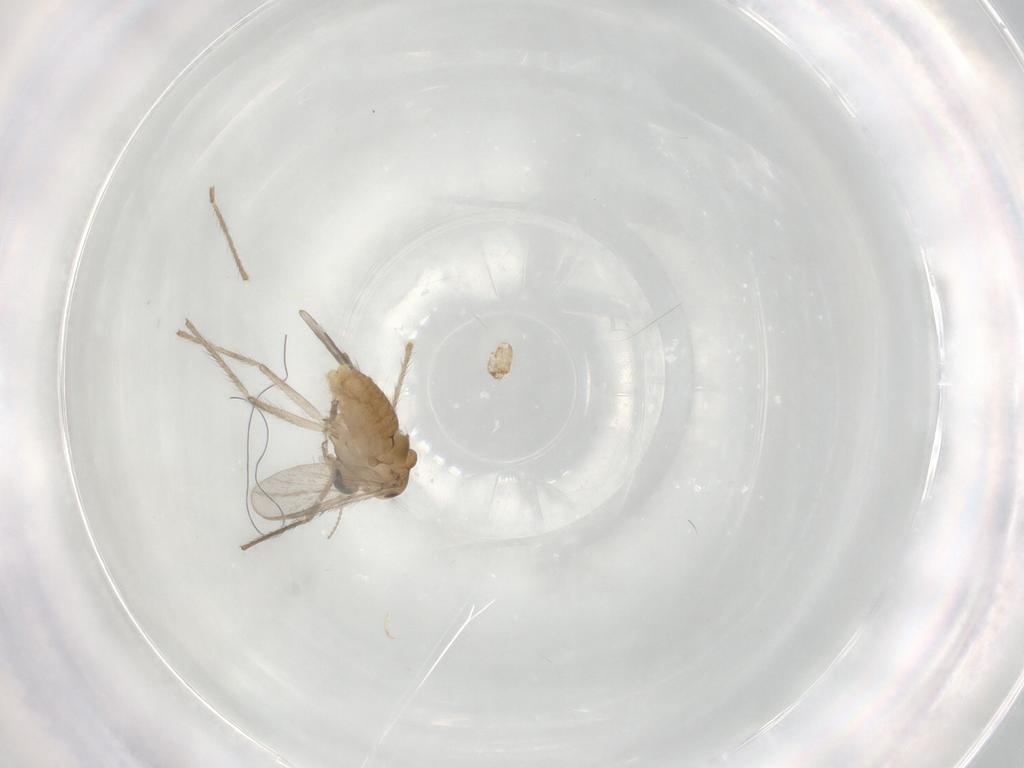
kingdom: Animalia
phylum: Arthropoda
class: Insecta
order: Diptera
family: Chironomidae
